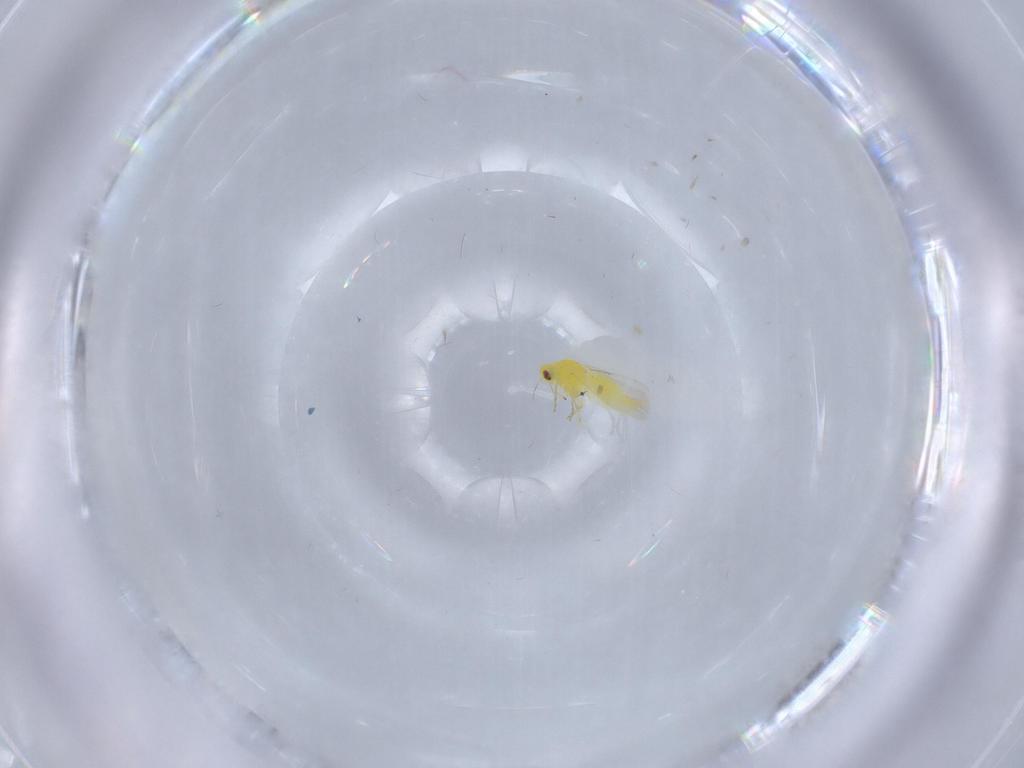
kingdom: Animalia
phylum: Arthropoda
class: Insecta
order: Hemiptera
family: Aleyrodidae
